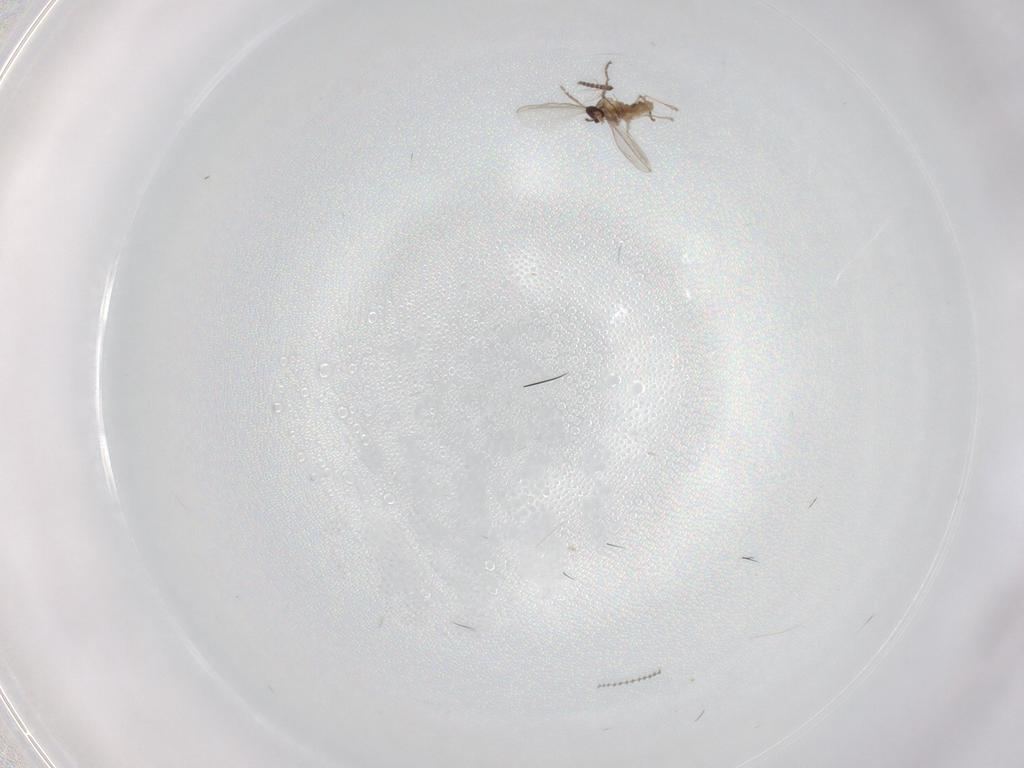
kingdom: Animalia
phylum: Arthropoda
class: Insecta
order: Diptera
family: Cecidomyiidae
